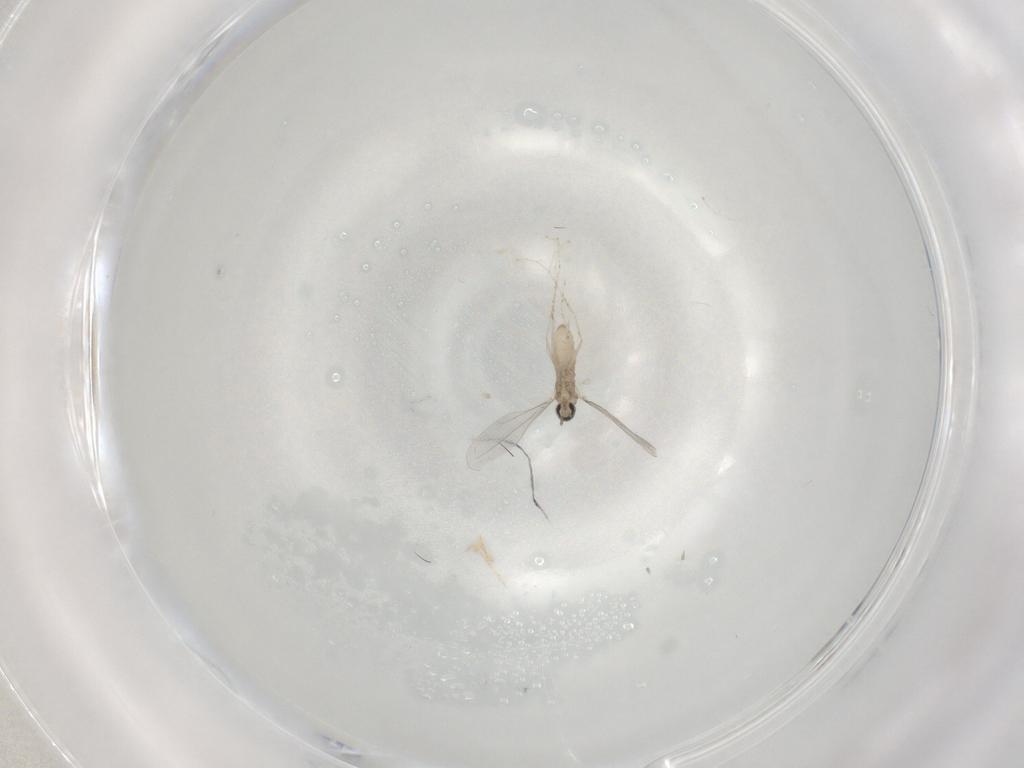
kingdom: Animalia
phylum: Arthropoda
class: Insecta
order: Diptera
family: Cecidomyiidae
